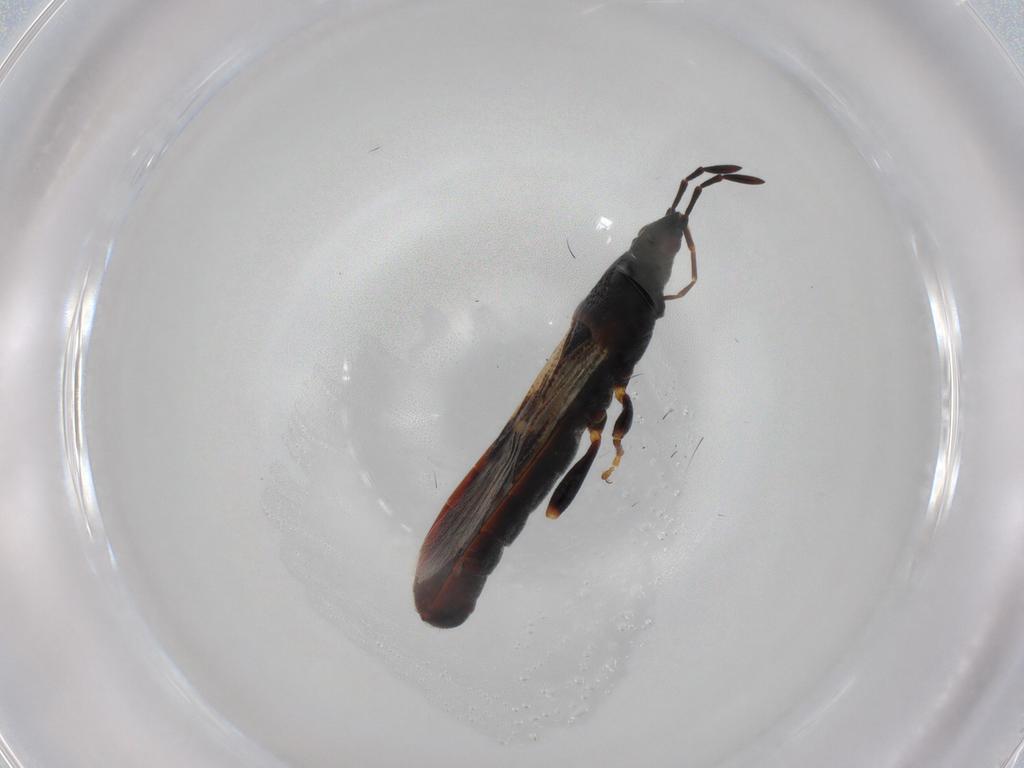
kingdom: Animalia
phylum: Arthropoda
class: Insecta
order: Hemiptera
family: Blissidae
